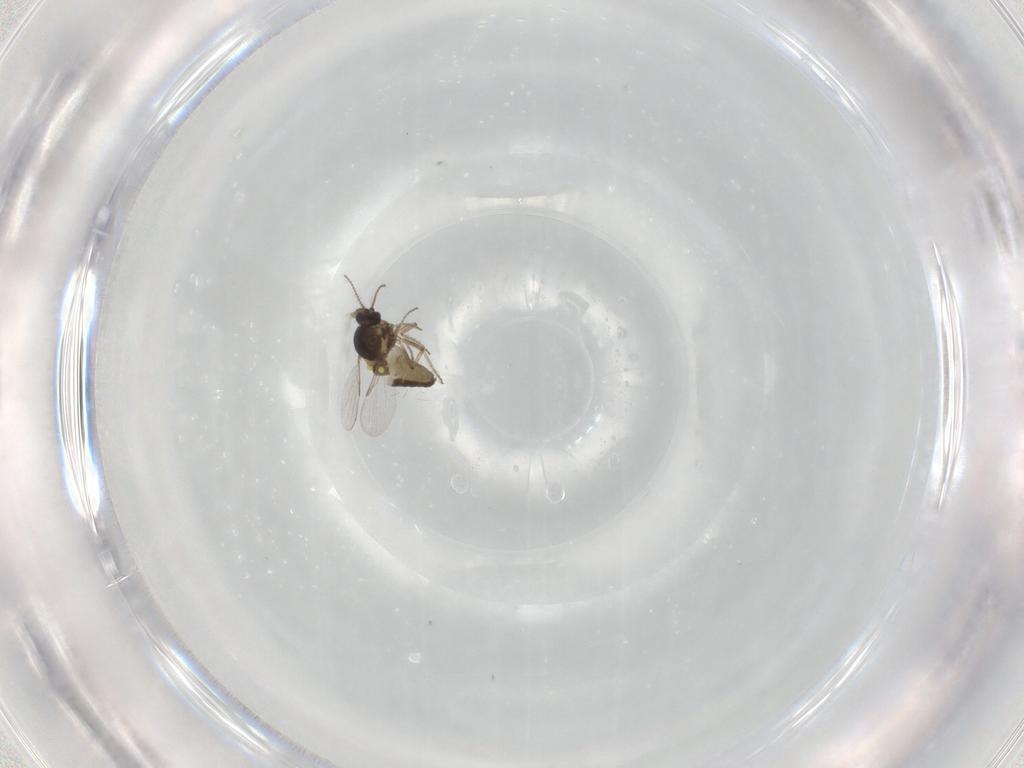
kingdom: Animalia
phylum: Arthropoda
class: Insecta
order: Diptera
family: Ceratopogonidae
